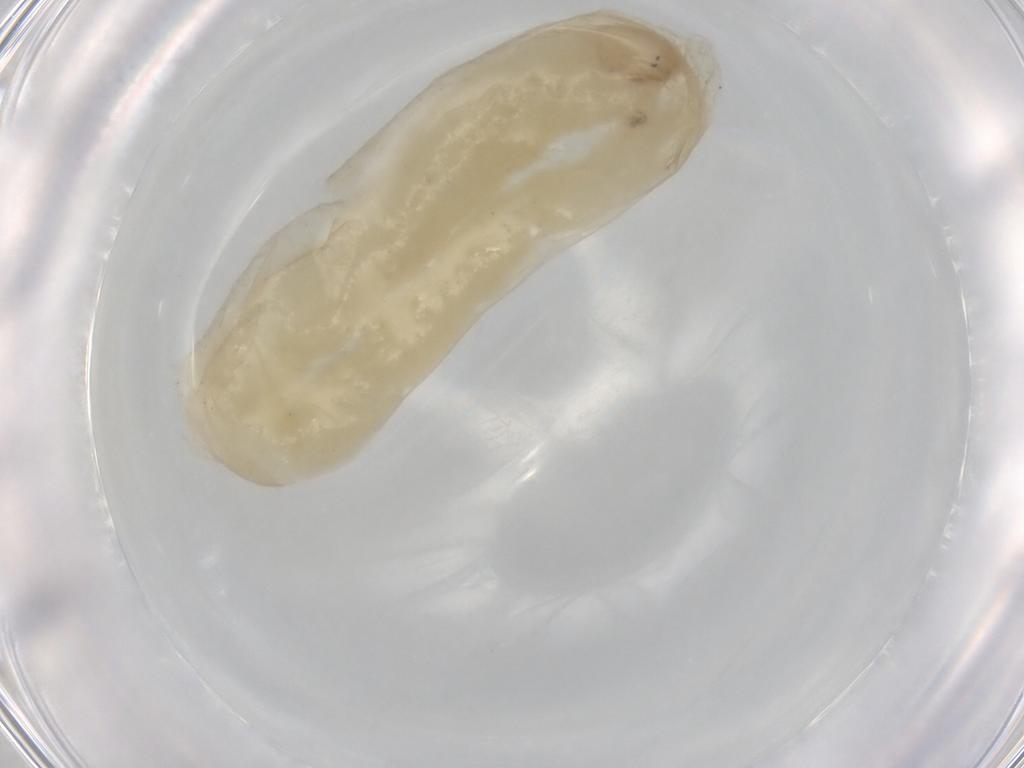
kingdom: Animalia
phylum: Arthropoda
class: Insecta
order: Diptera
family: Chironomidae
